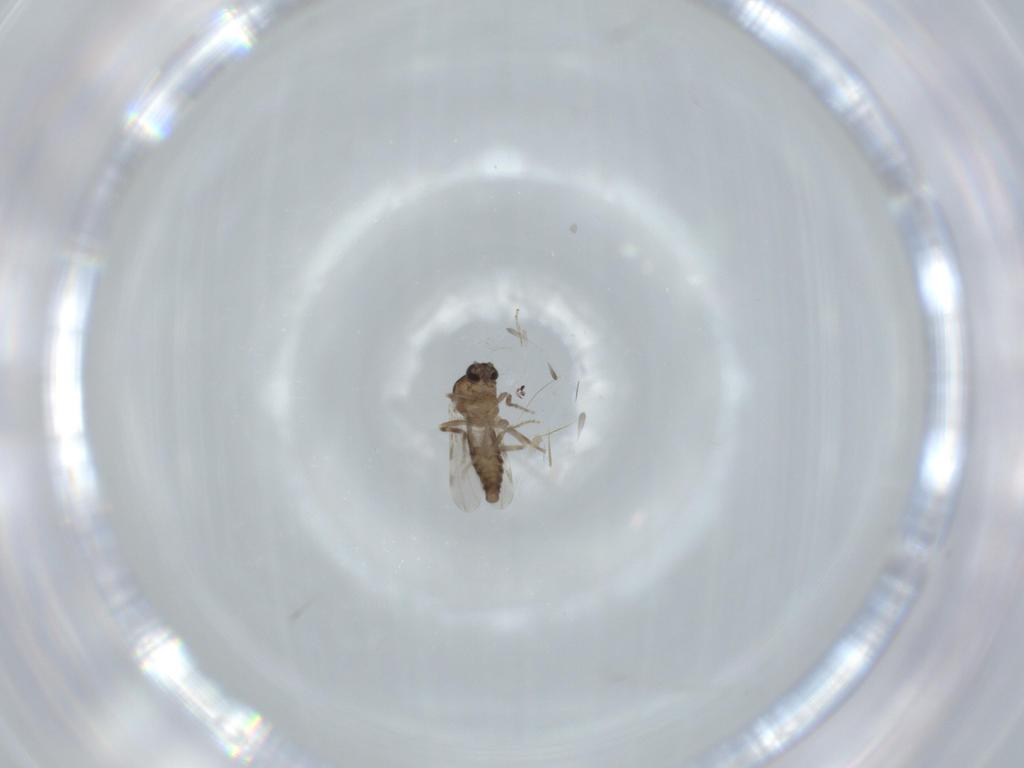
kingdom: Animalia
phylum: Arthropoda
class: Insecta
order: Diptera
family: Ceratopogonidae
